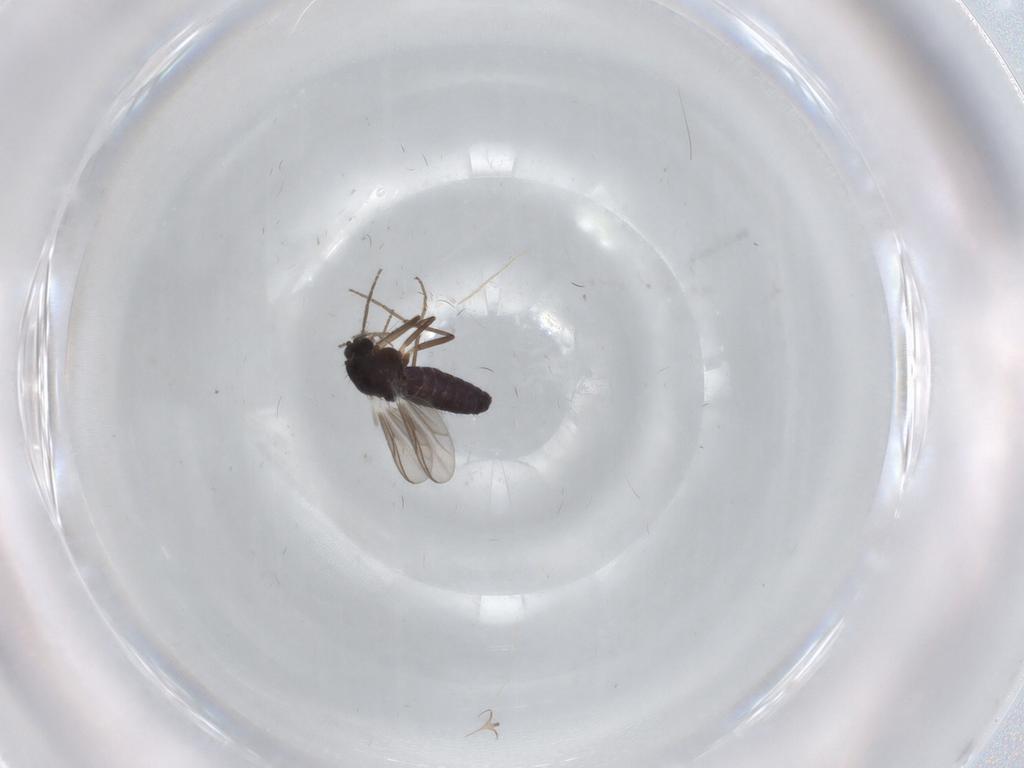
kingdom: Animalia
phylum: Arthropoda
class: Insecta
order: Diptera
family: Chironomidae
